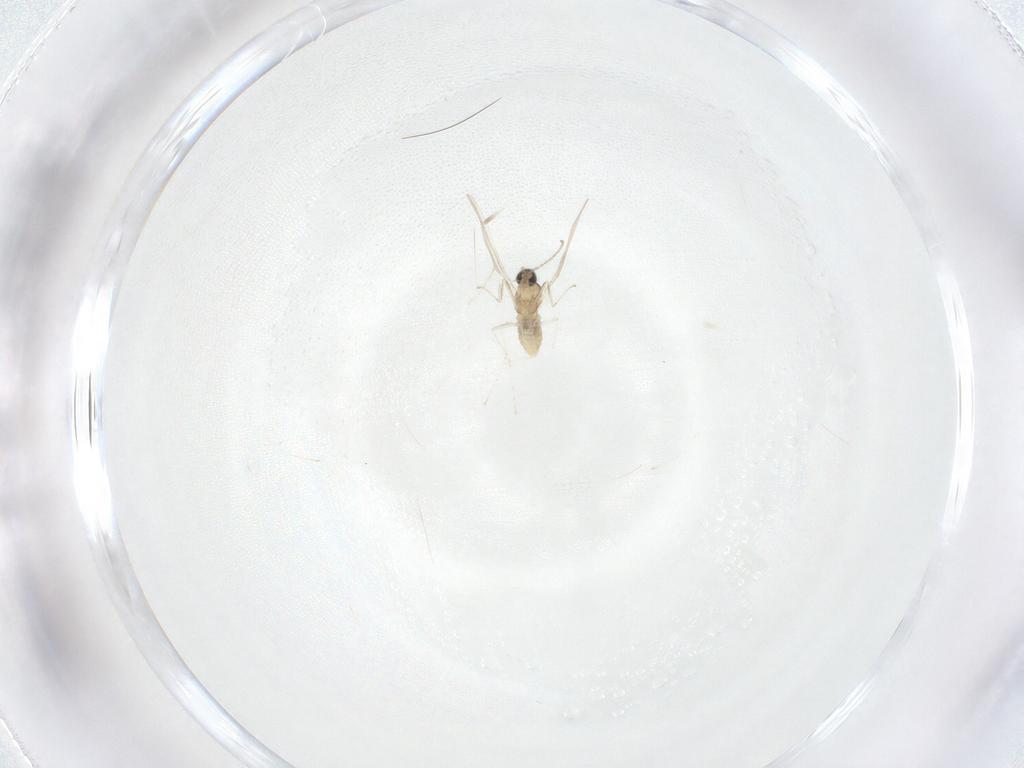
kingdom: Animalia
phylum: Arthropoda
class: Insecta
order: Diptera
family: Cecidomyiidae
